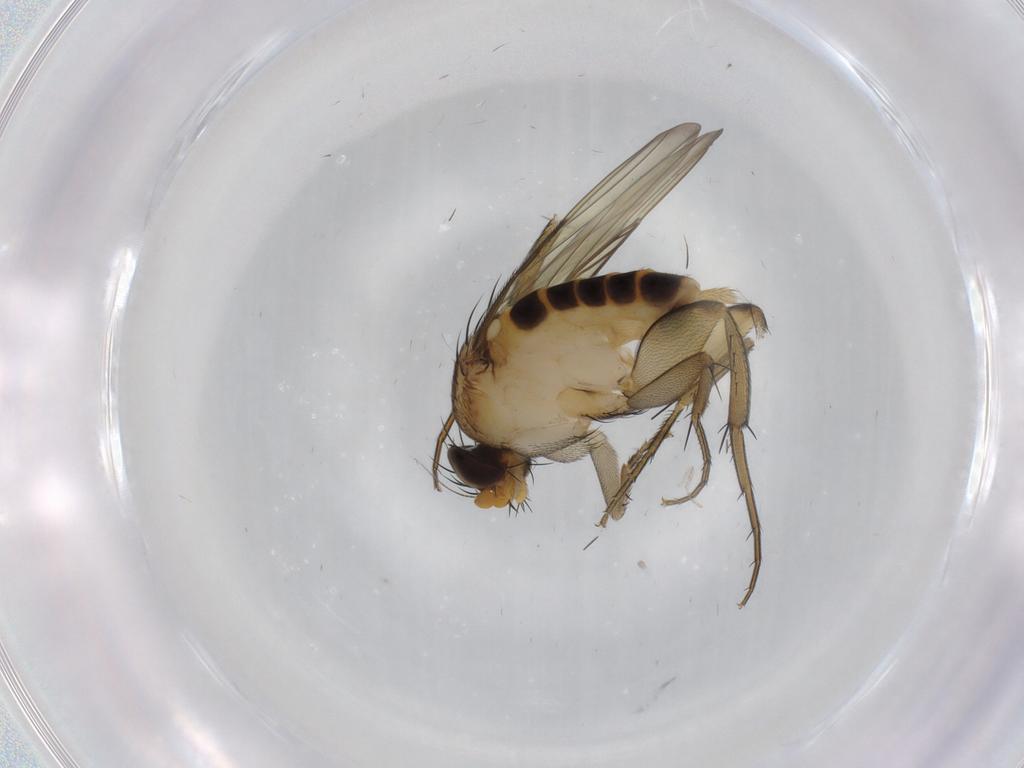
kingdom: Animalia
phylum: Arthropoda
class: Insecta
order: Diptera
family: Phoridae
